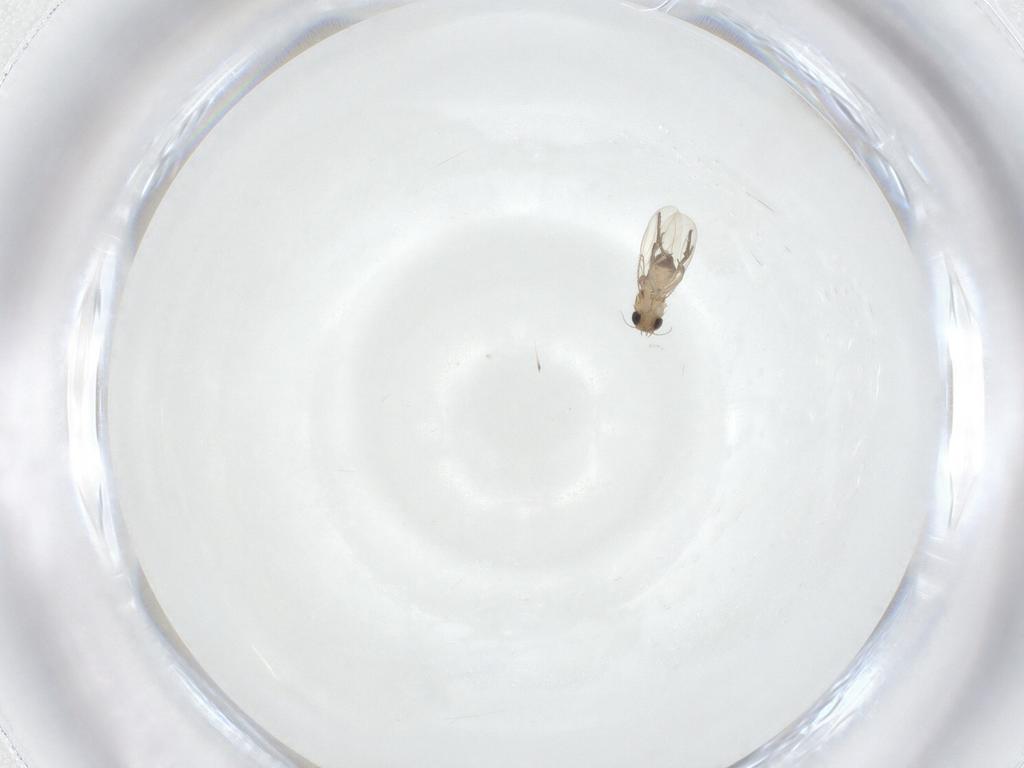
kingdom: Animalia
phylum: Arthropoda
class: Insecta
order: Diptera
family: Phoridae
